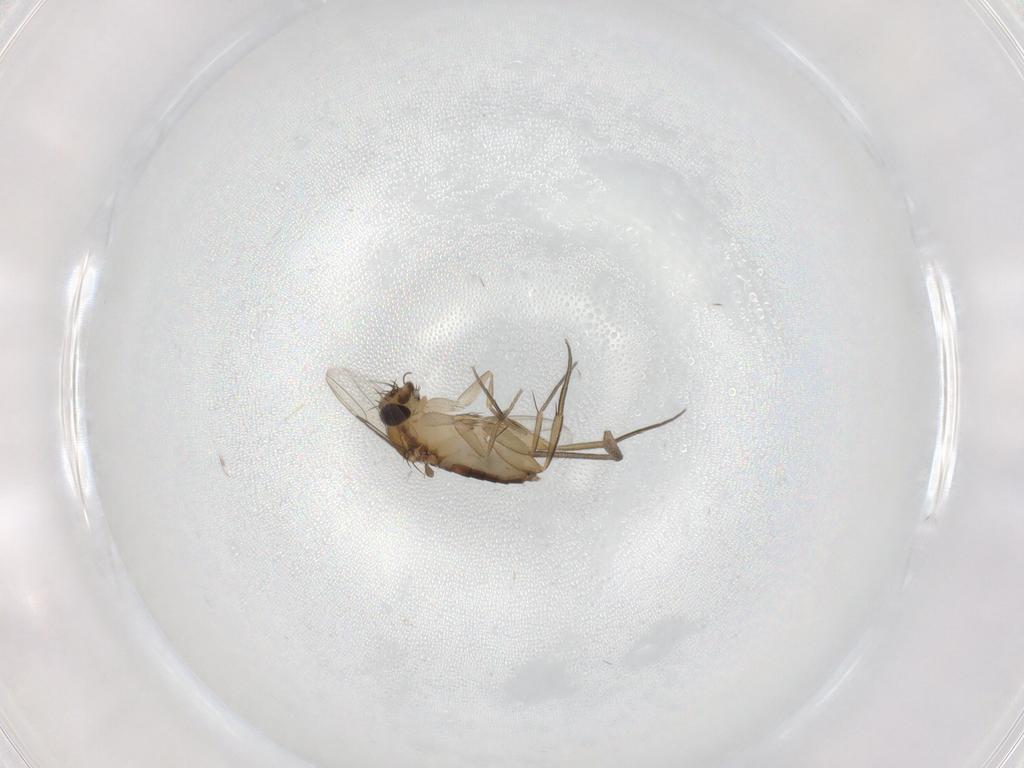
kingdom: Animalia
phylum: Arthropoda
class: Insecta
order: Diptera
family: Phoridae
